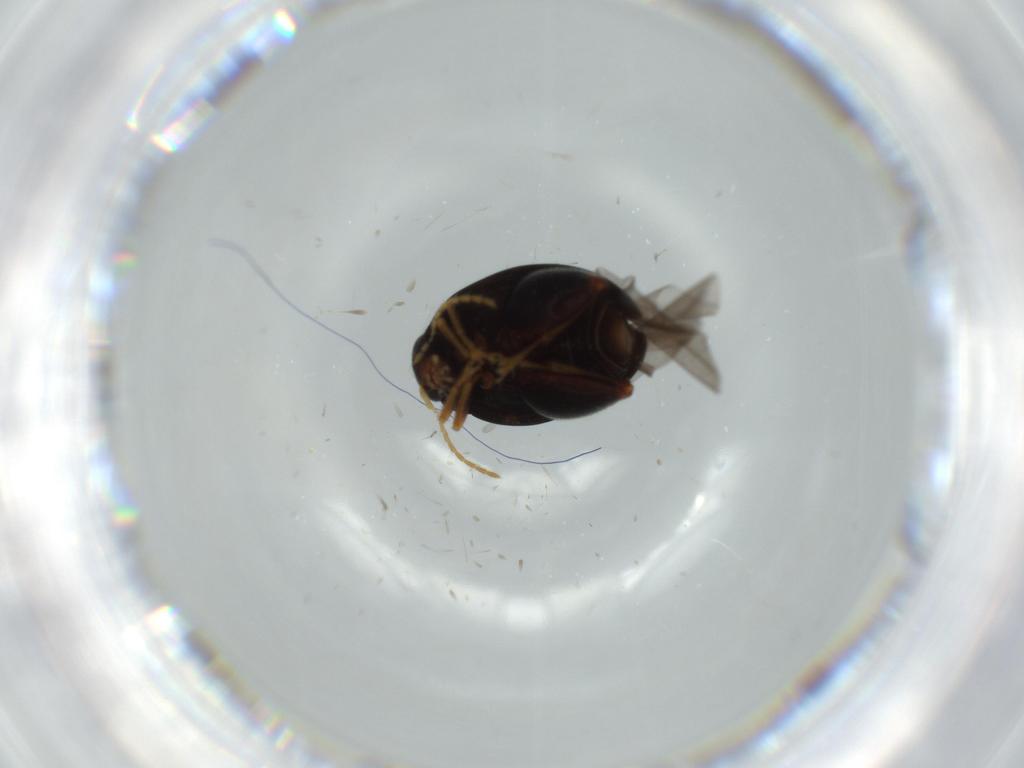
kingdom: Animalia
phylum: Arthropoda
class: Insecta
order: Coleoptera
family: Chrysomelidae
